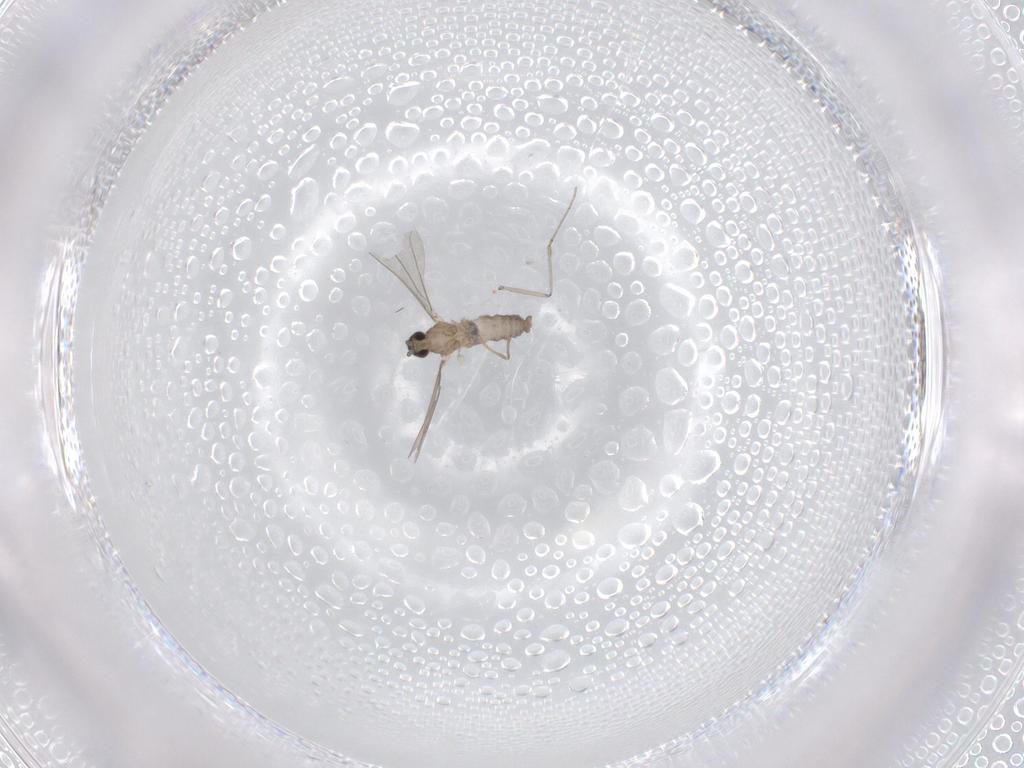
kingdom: Animalia
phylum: Arthropoda
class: Insecta
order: Diptera
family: Cecidomyiidae
